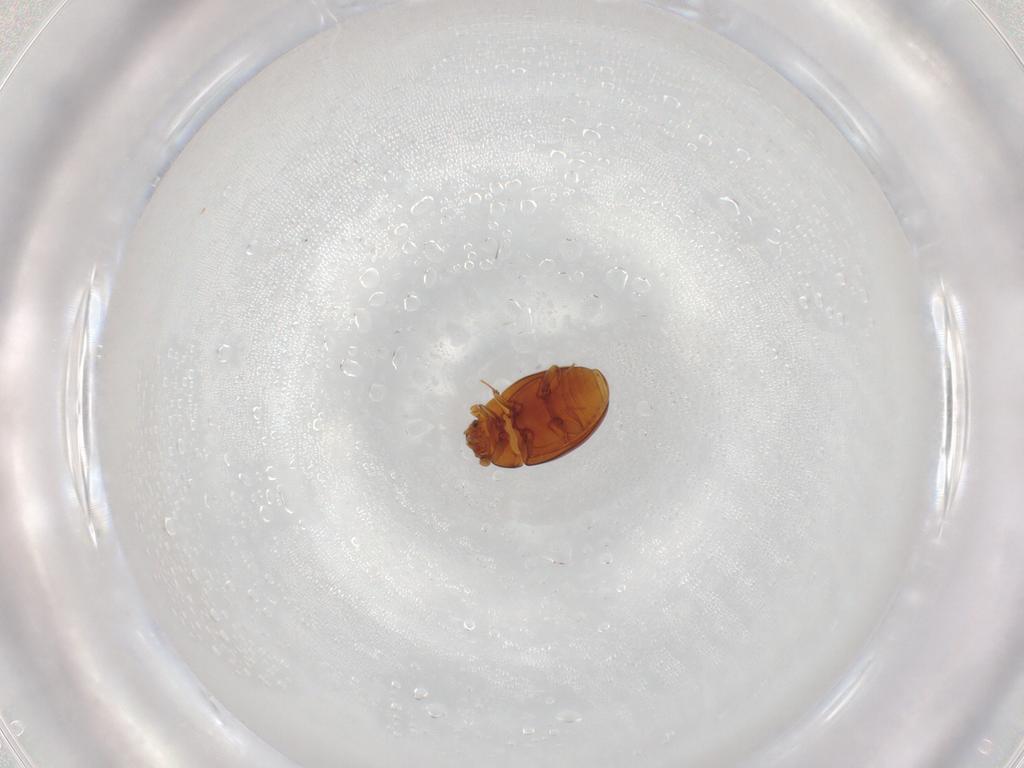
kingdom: Animalia
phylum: Arthropoda
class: Insecta
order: Coleoptera
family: Eupsilobiidae
